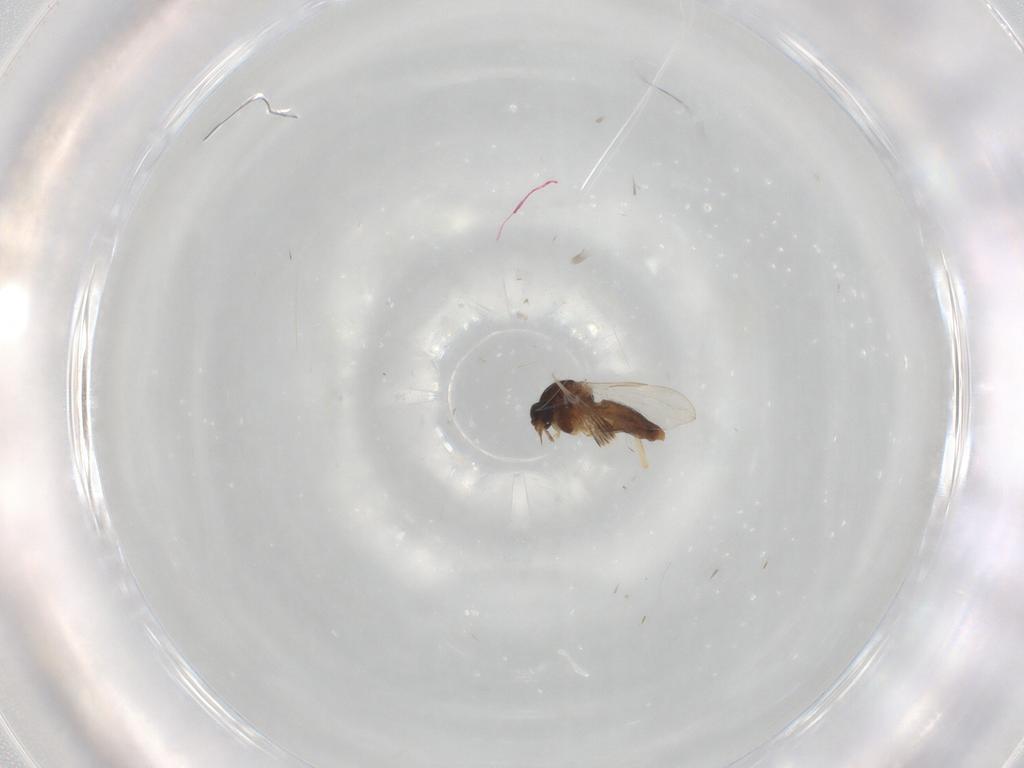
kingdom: Animalia
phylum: Arthropoda
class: Insecta
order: Diptera
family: Ceratopogonidae
